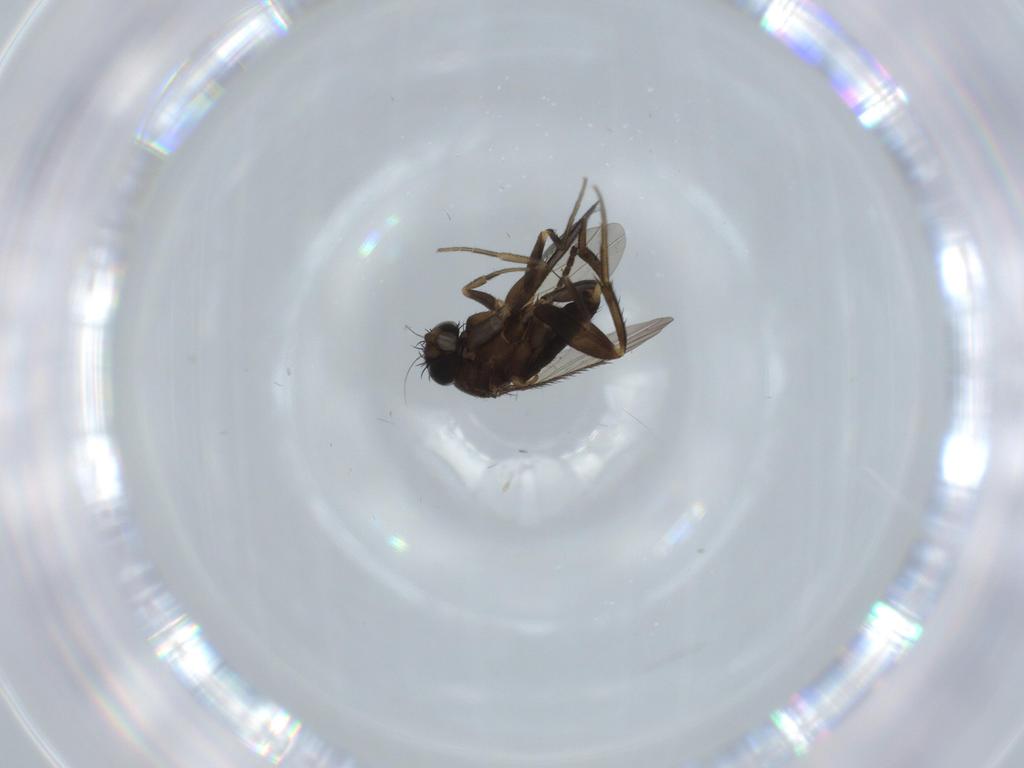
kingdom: Animalia
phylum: Arthropoda
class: Insecta
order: Diptera
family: Sciaridae
